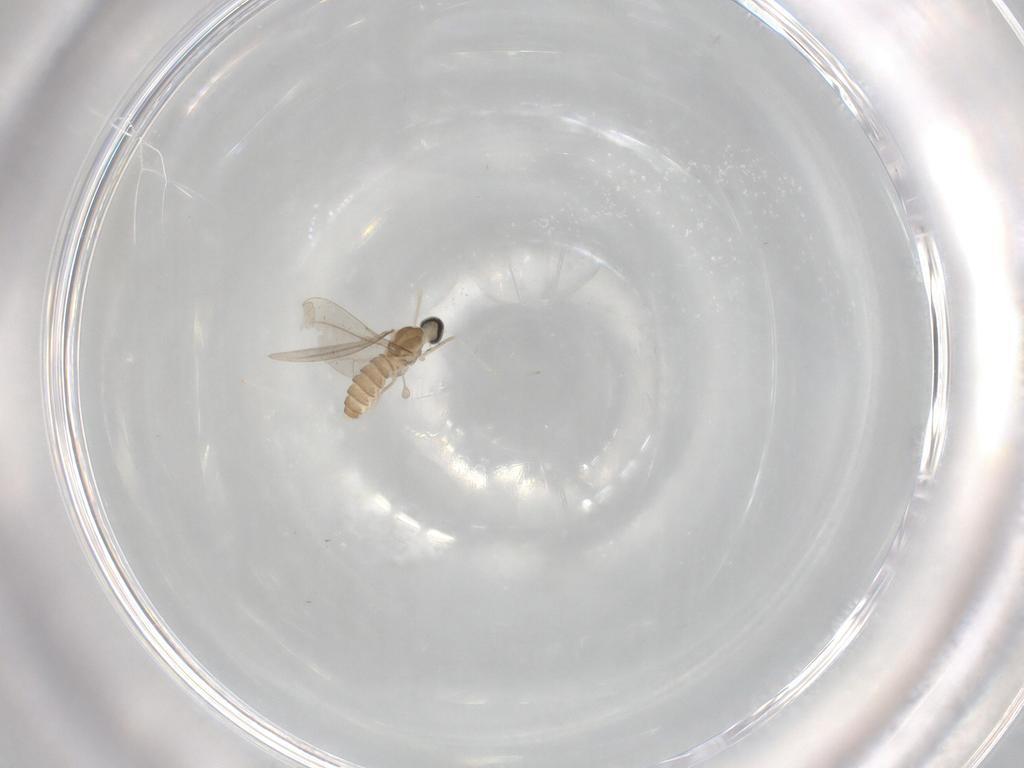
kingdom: Animalia
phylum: Arthropoda
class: Insecta
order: Diptera
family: Cecidomyiidae
